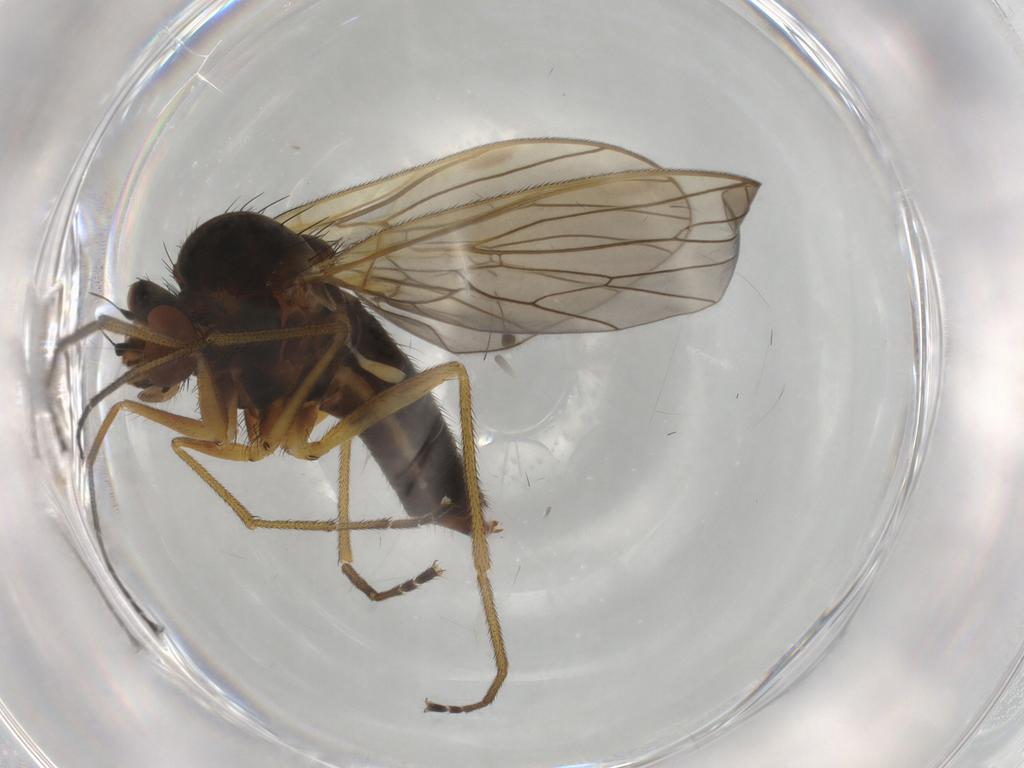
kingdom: Animalia
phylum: Arthropoda
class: Insecta
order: Diptera
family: Brachystomatidae
